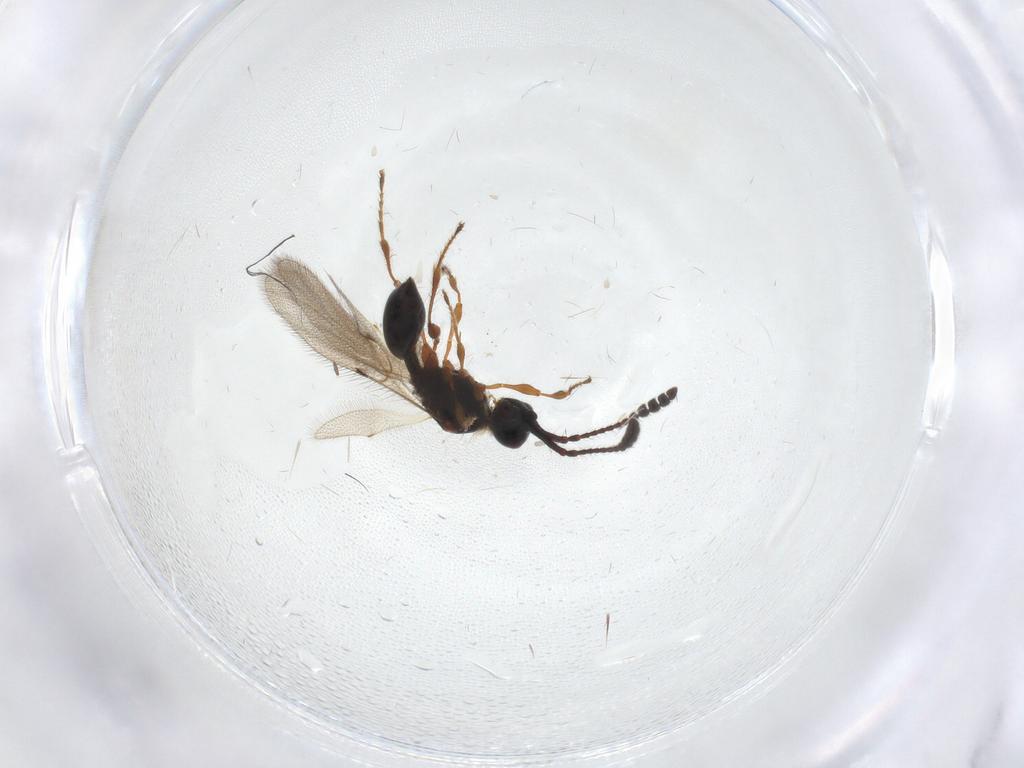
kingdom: Animalia
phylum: Arthropoda
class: Insecta
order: Hymenoptera
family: Diapriidae
